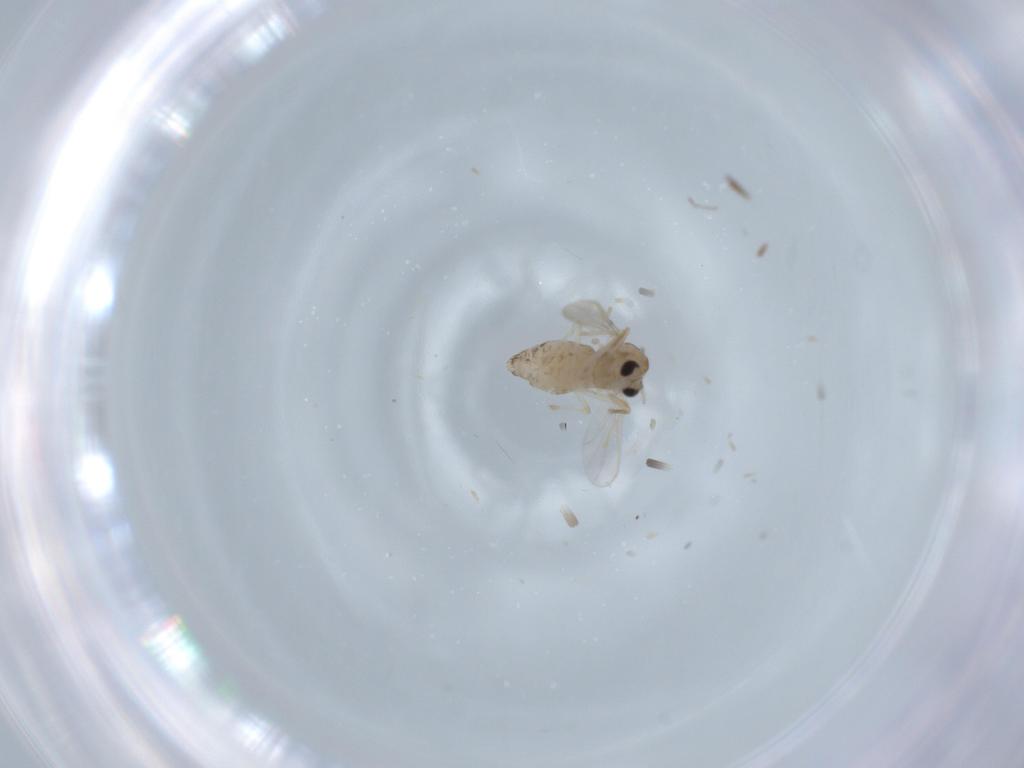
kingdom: Animalia
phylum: Arthropoda
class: Insecta
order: Diptera
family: Chironomidae
